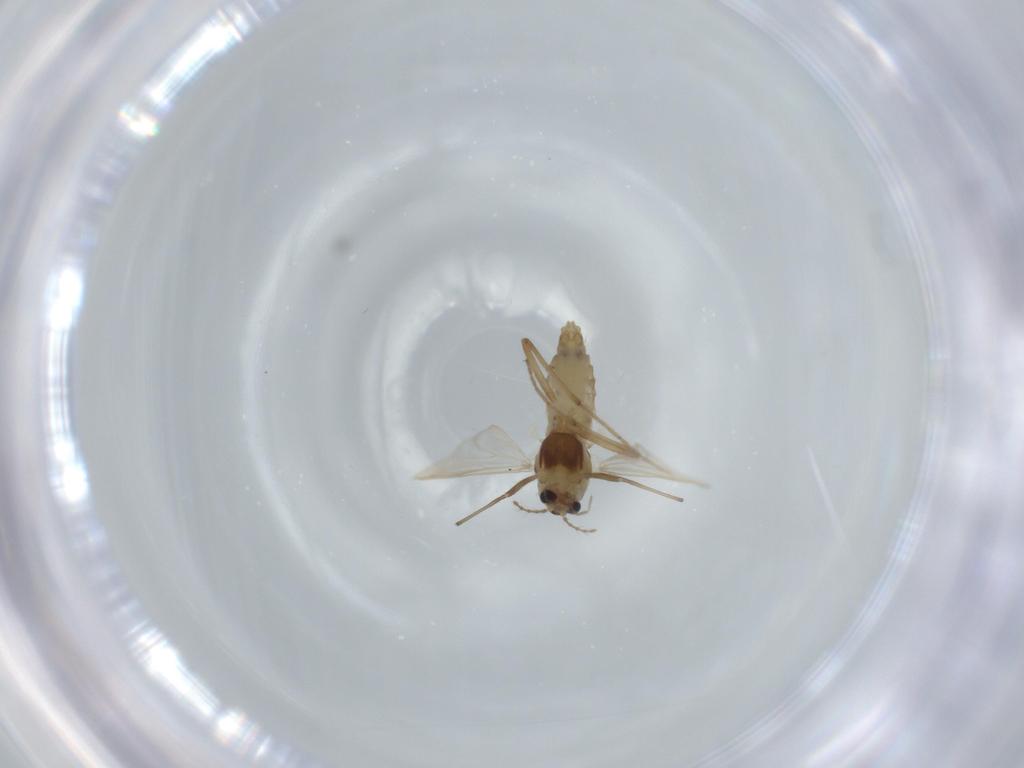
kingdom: Animalia
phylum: Arthropoda
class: Insecta
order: Diptera
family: Chironomidae
